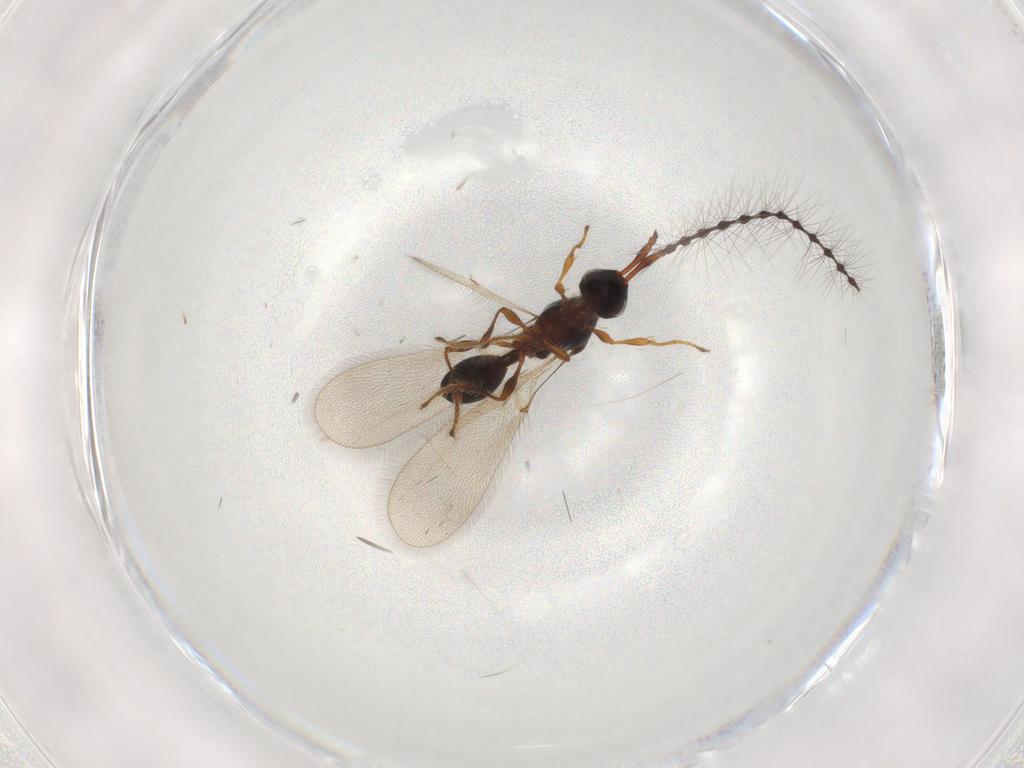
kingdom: Animalia
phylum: Arthropoda
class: Insecta
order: Hymenoptera
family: Diapriidae
